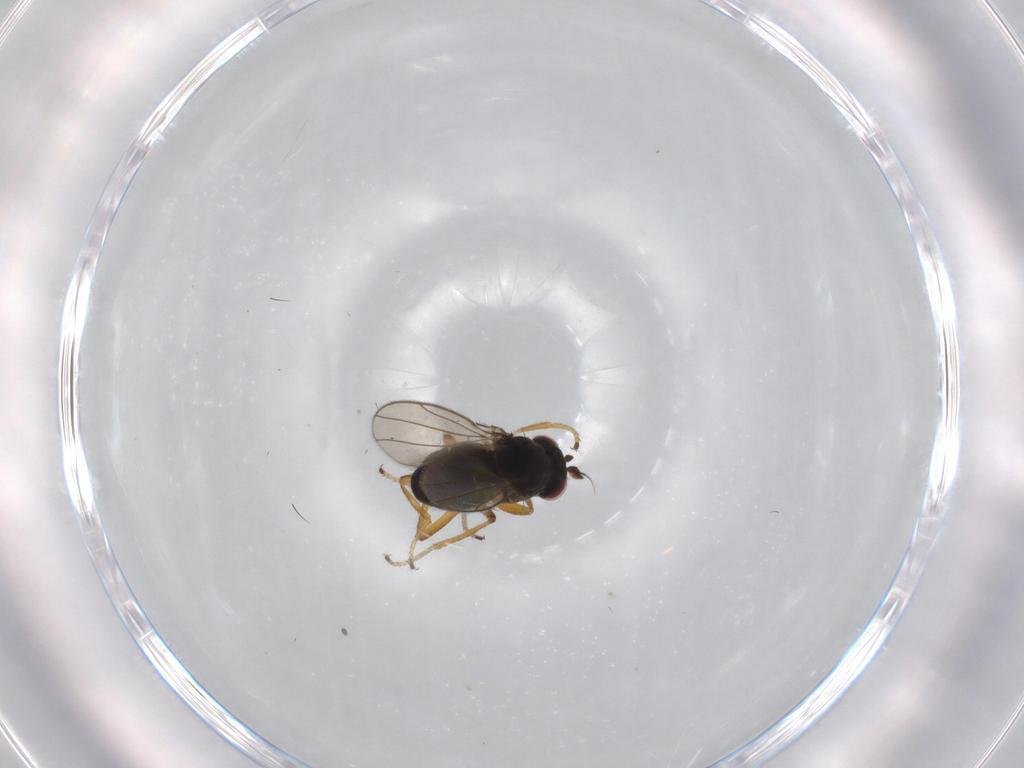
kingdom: Animalia
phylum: Arthropoda
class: Insecta
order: Diptera
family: Ephydridae
